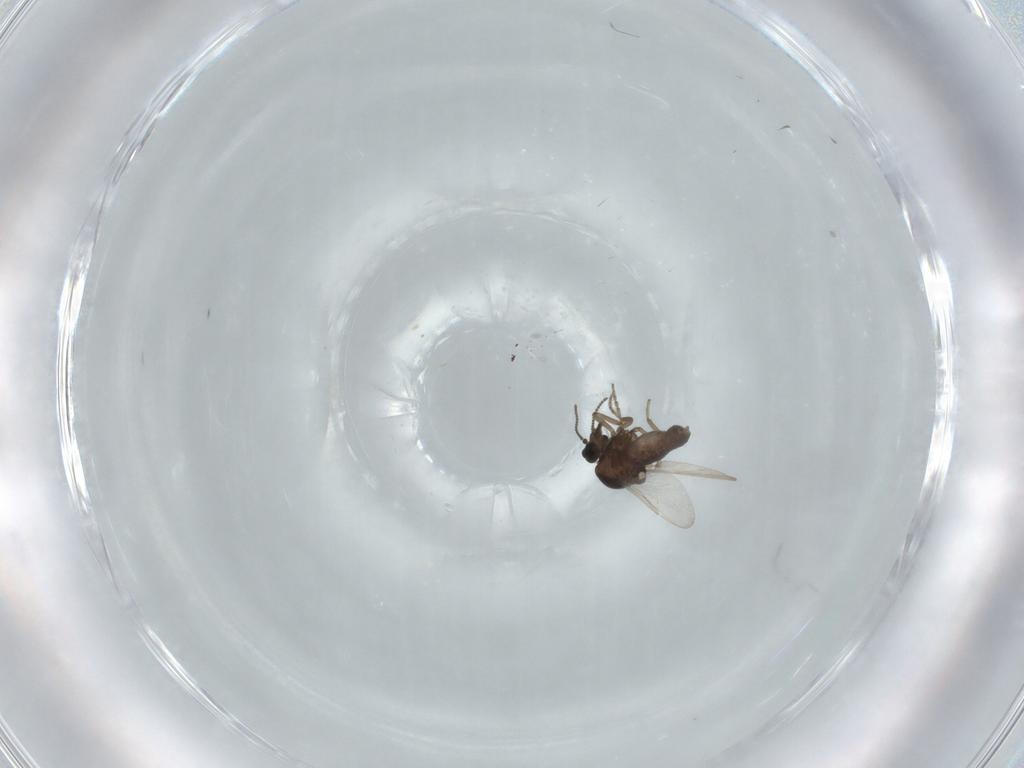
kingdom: Animalia
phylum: Arthropoda
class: Insecta
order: Diptera
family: Ceratopogonidae
